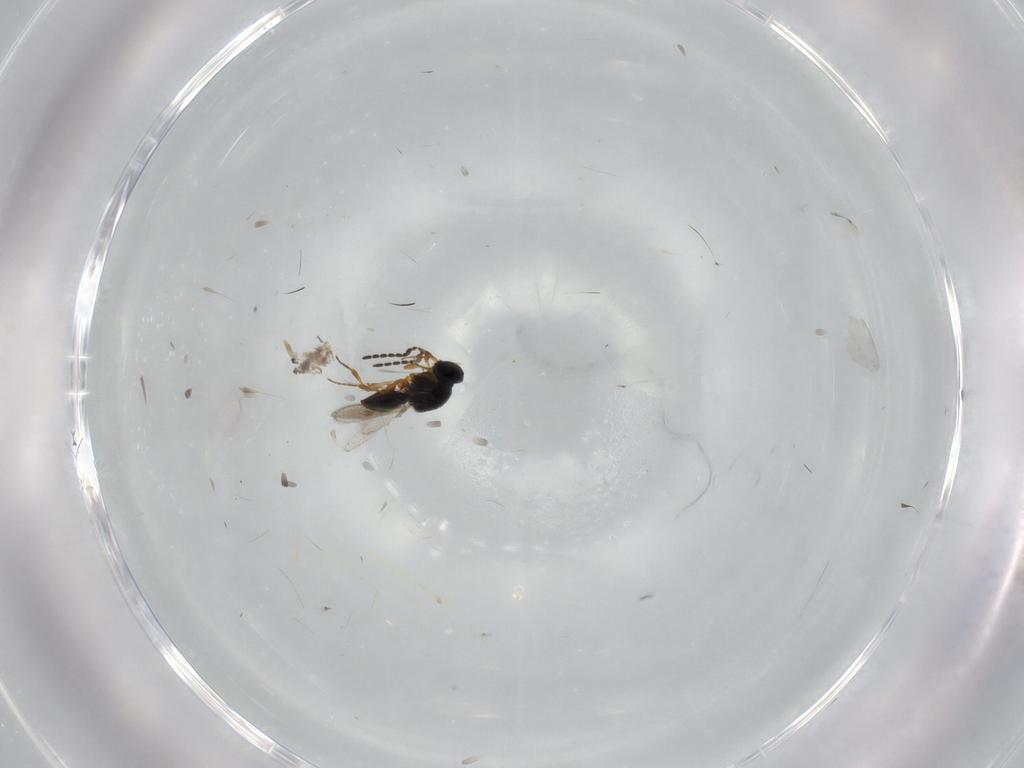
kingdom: Animalia
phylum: Arthropoda
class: Insecta
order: Hymenoptera
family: Platygastridae
